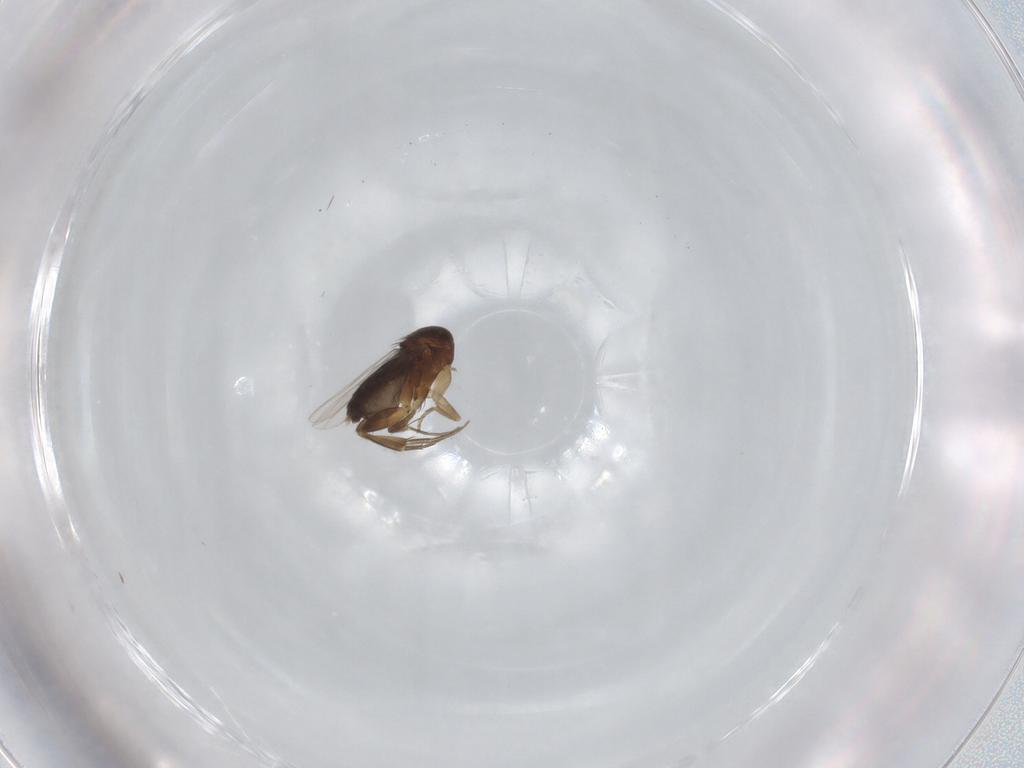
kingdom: Animalia
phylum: Arthropoda
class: Insecta
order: Diptera
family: Phoridae
